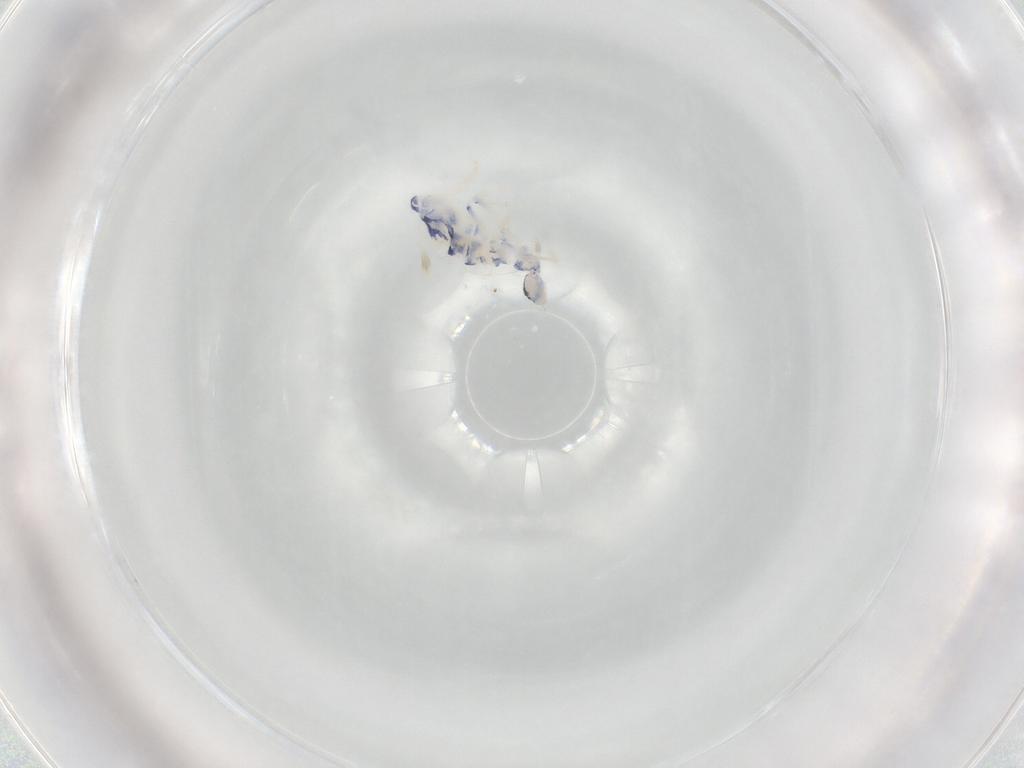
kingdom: Animalia
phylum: Arthropoda
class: Collembola
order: Entomobryomorpha
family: Entomobryidae
